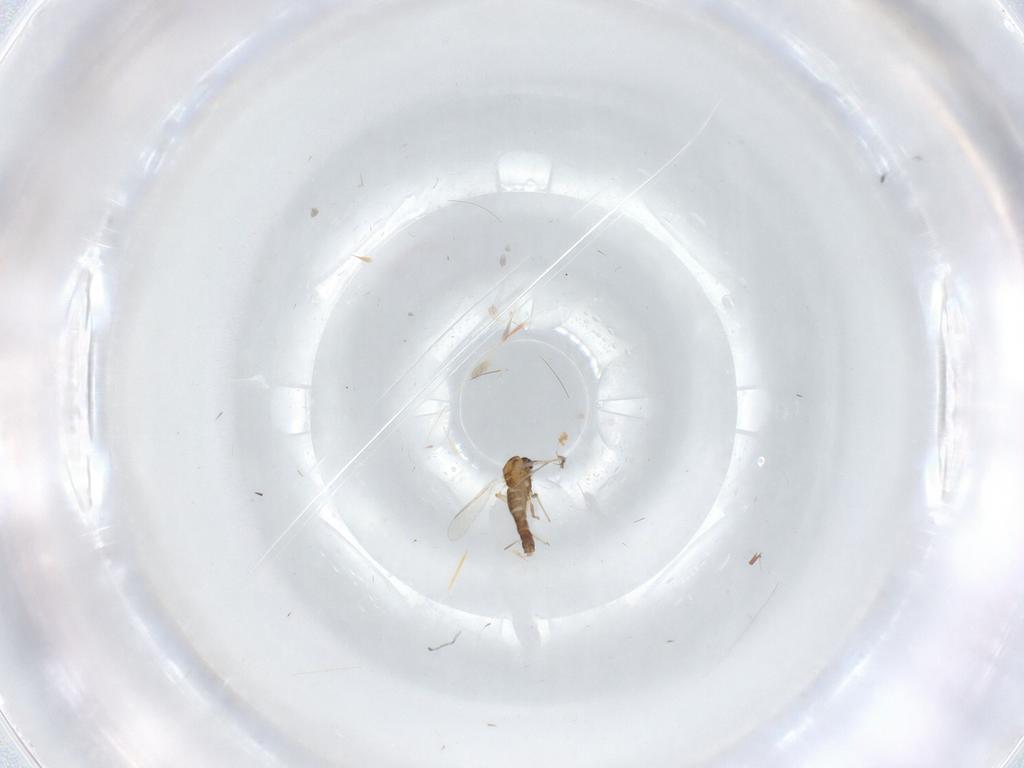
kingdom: Animalia
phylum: Arthropoda
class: Insecta
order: Diptera
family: Chironomidae
